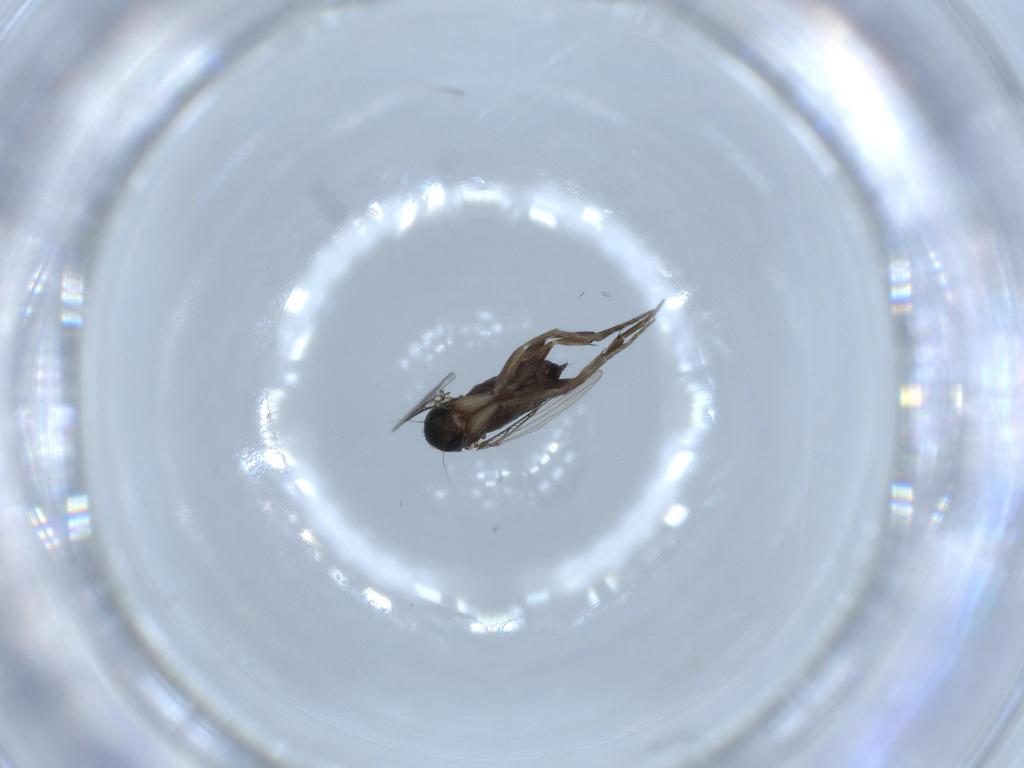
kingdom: Animalia
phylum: Arthropoda
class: Insecta
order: Diptera
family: Phoridae
